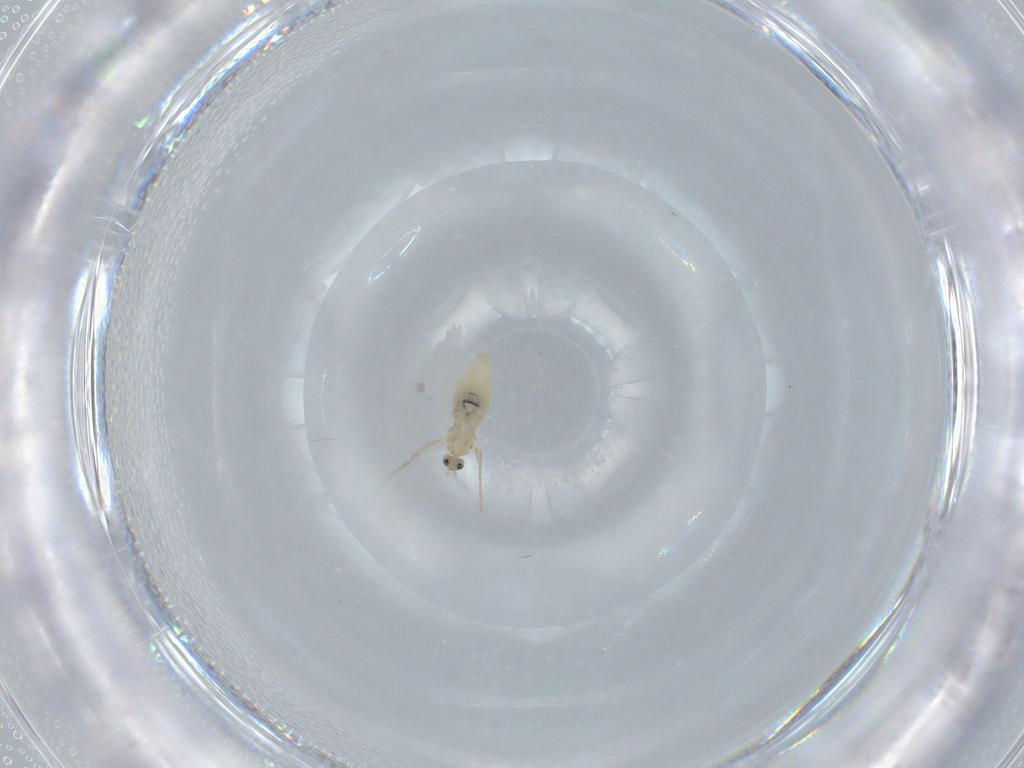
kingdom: Animalia
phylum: Arthropoda
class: Insecta
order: Diptera
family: Cecidomyiidae
